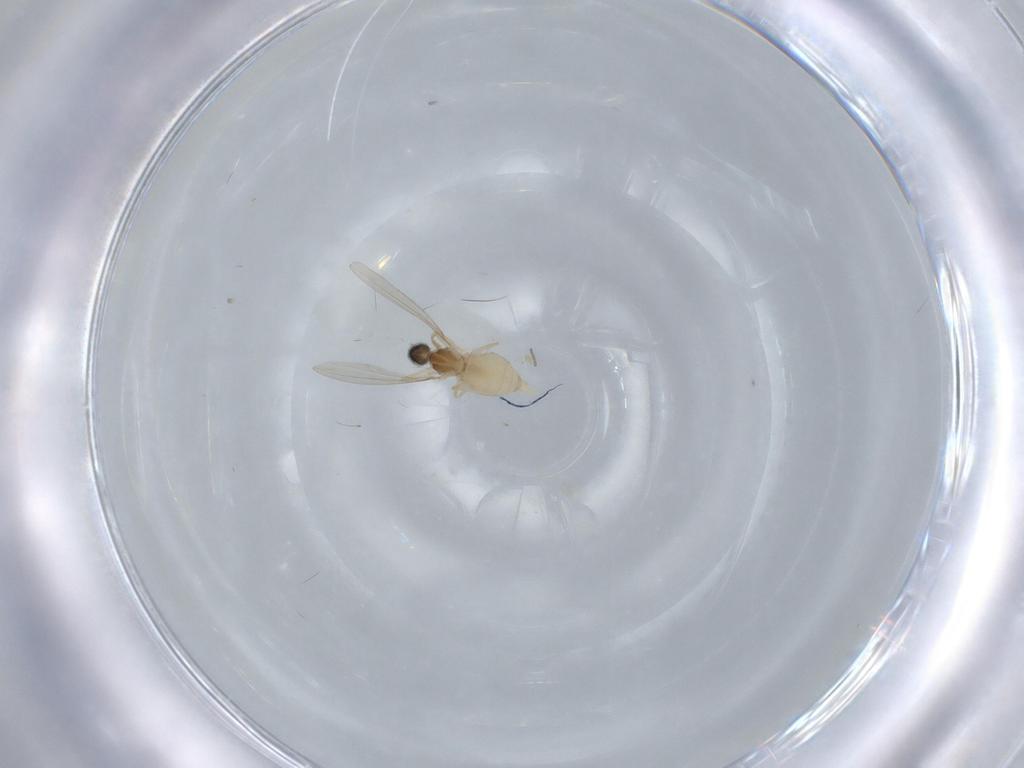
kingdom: Animalia
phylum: Arthropoda
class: Insecta
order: Diptera
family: Cecidomyiidae
